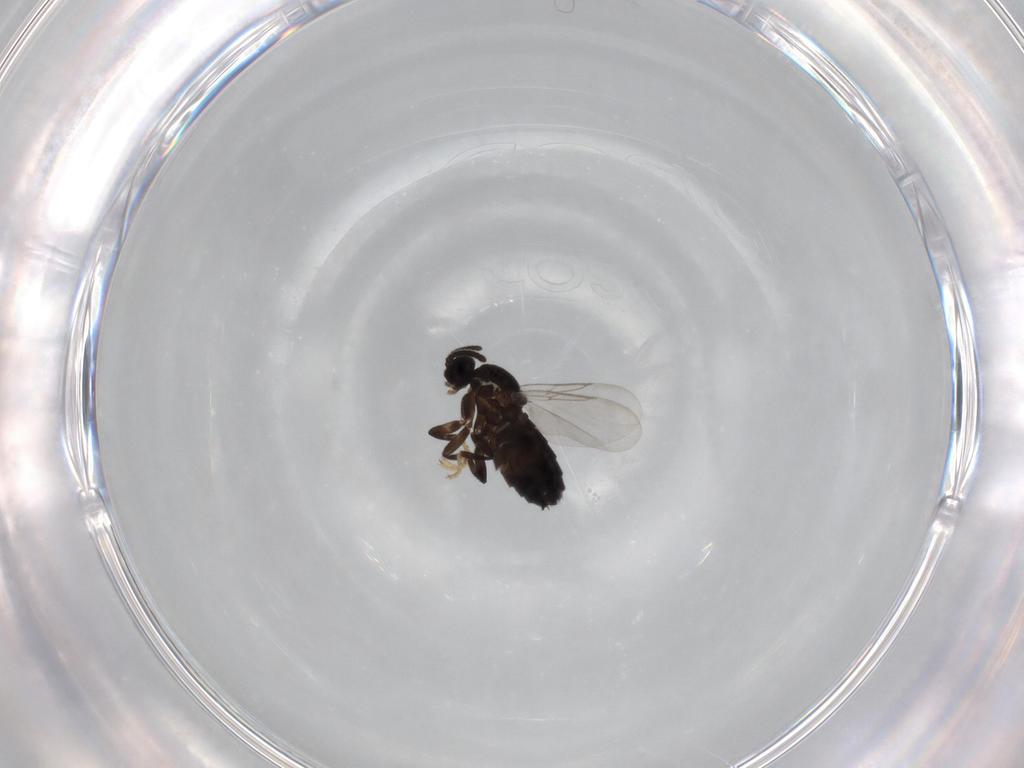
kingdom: Animalia
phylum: Arthropoda
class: Insecta
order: Diptera
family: Scatopsidae
